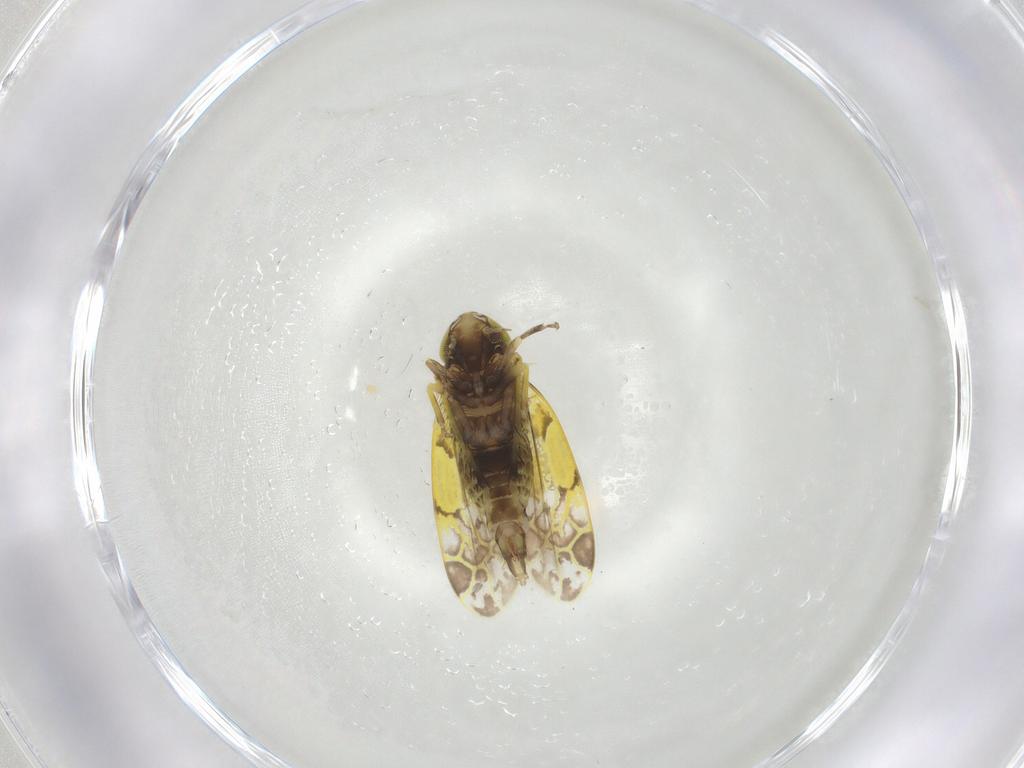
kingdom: Animalia
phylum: Arthropoda
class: Insecta
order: Hemiptera
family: Cicadellidae
